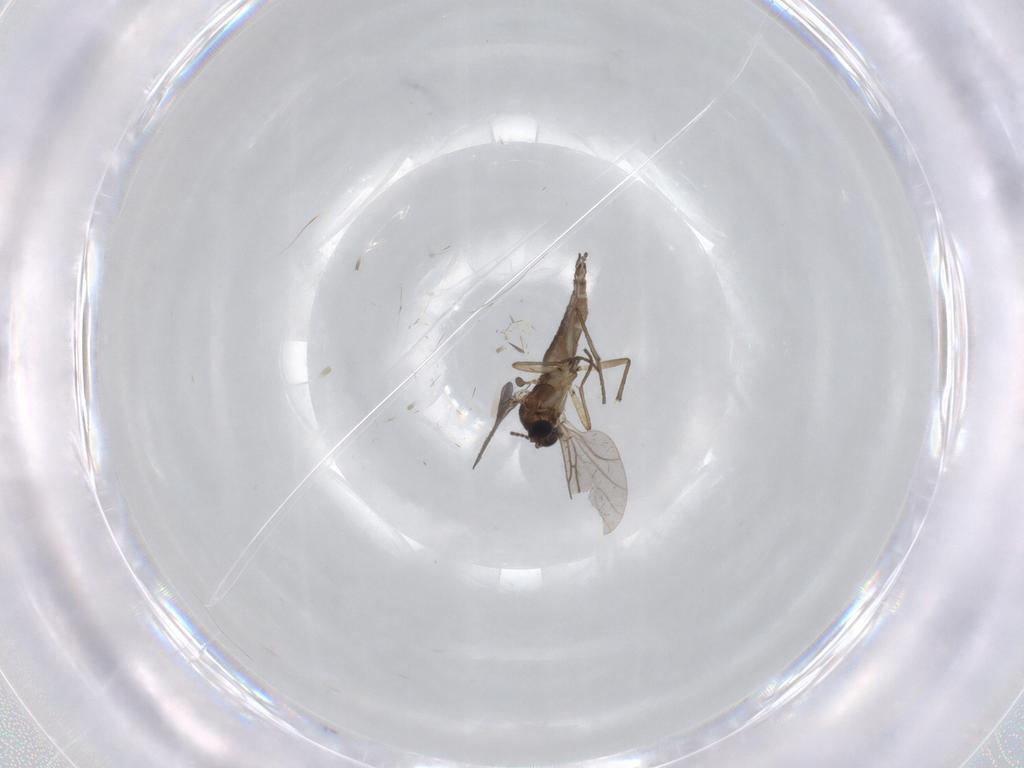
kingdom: Animalia
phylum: Arthropoda
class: Insecta
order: Diptera
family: Sciaridae
